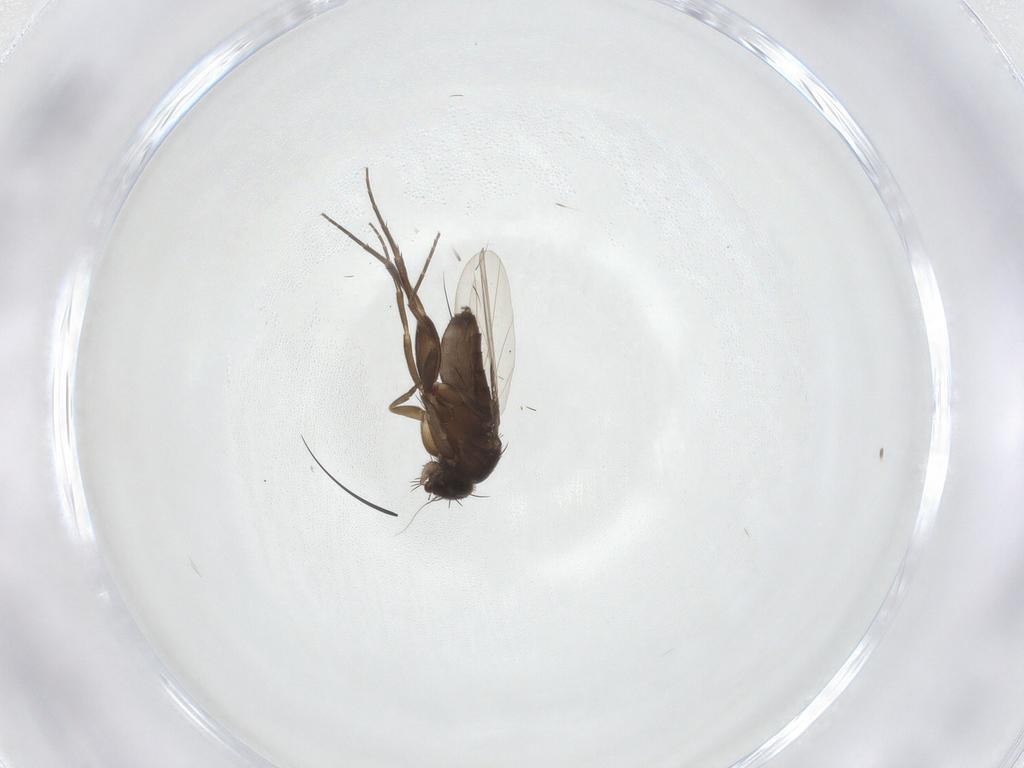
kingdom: Animalia
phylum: Arthropoda
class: Insecta
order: Diptera
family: Phoridae
